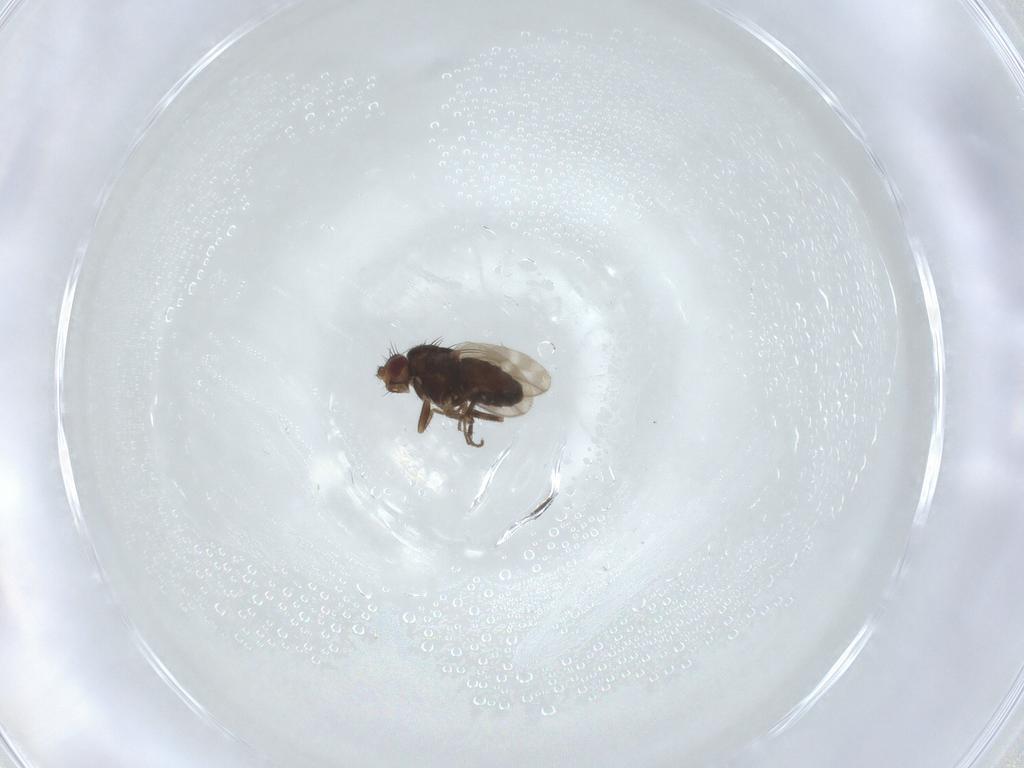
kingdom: Animalia
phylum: Arthropoda
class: Insecta
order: Diptera
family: Sphaeroceridae
